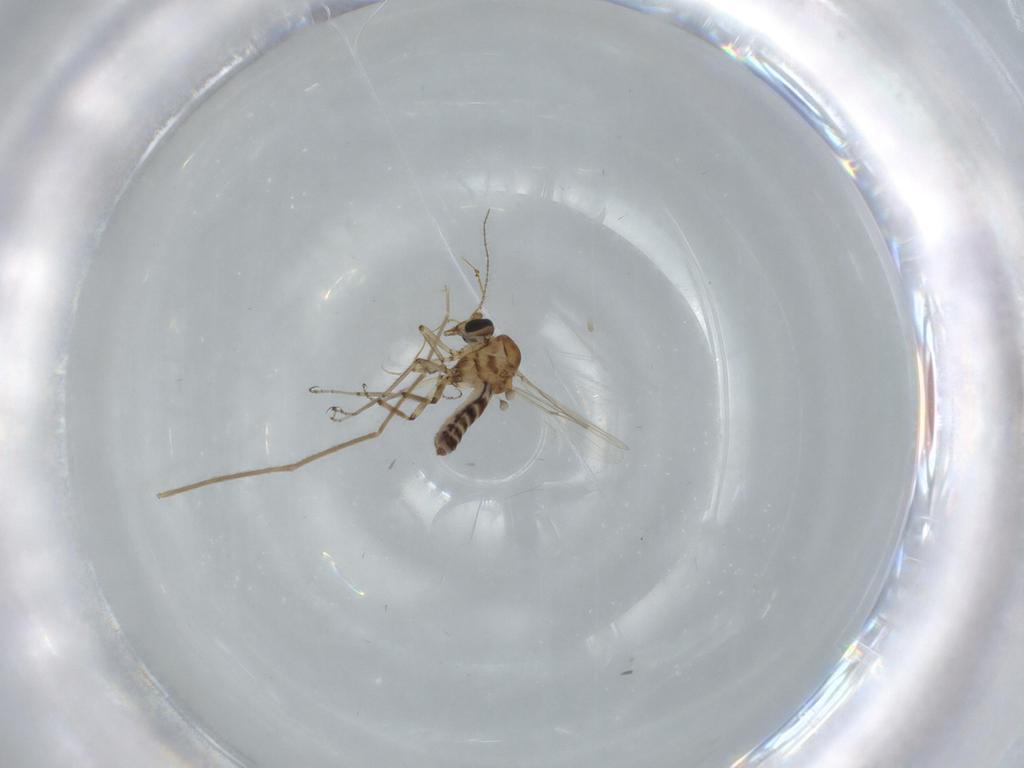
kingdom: Animalia
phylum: Arthropoda
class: Insecta
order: Diptera
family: Ceratopogonidae
